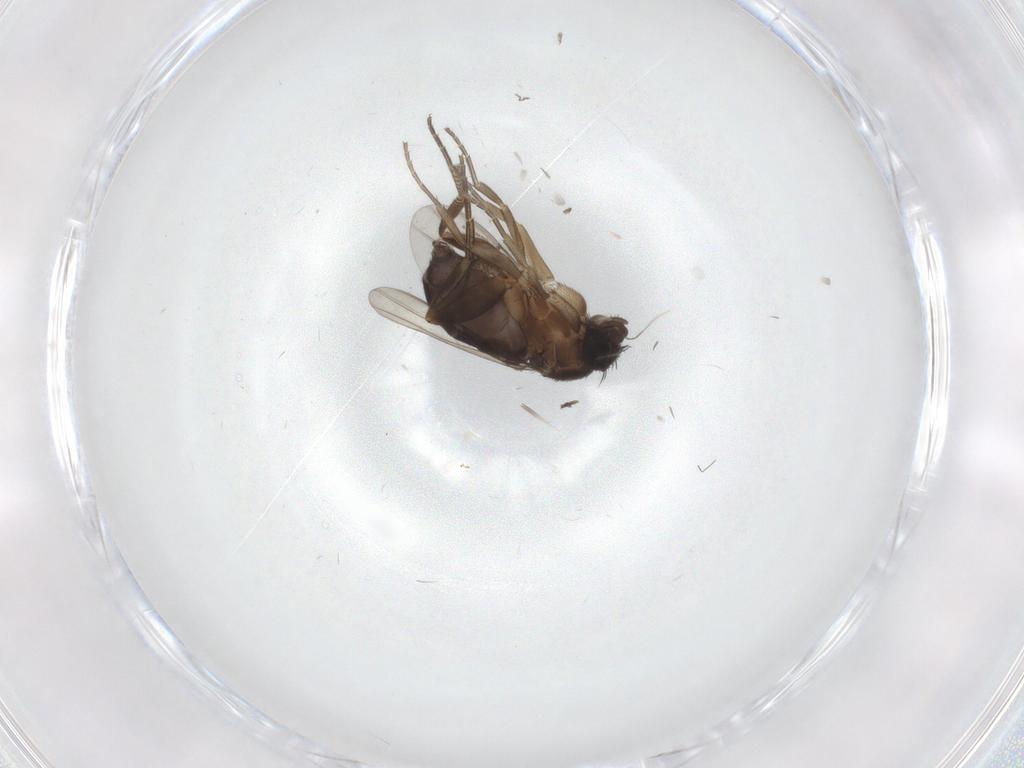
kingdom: Animalia
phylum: Arthropoda
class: Insecta
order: Diptera
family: Phoridae
